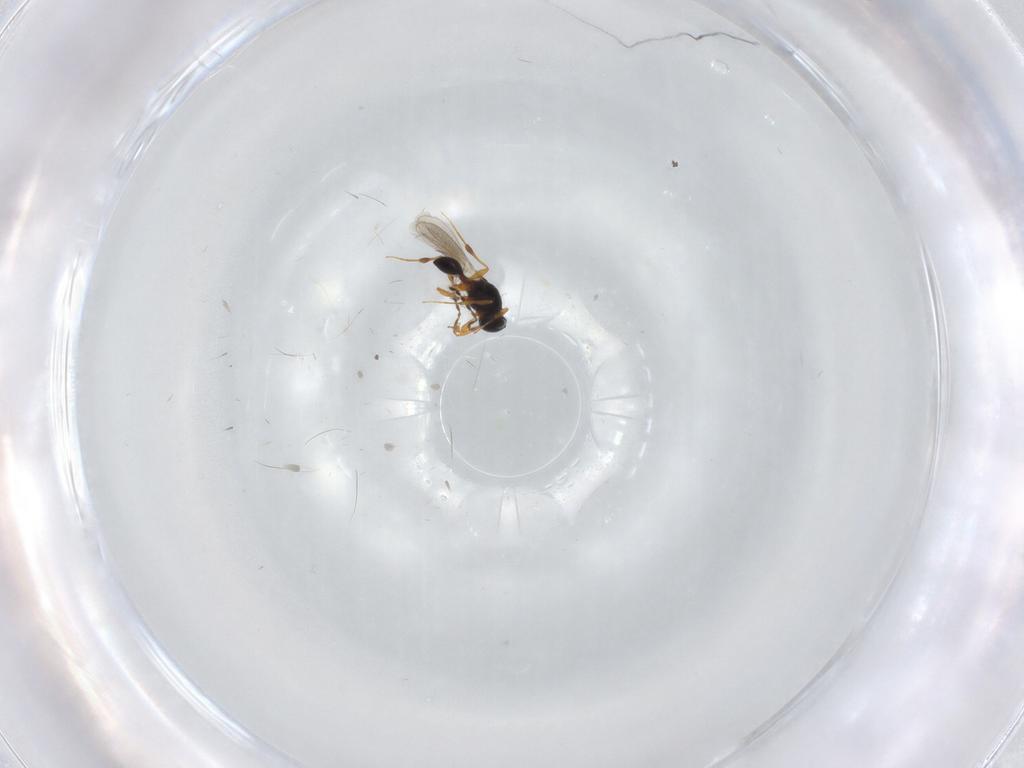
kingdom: Animalia
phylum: Arthropoda
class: Insecta
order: Hymenoptera
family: Platygastridae
